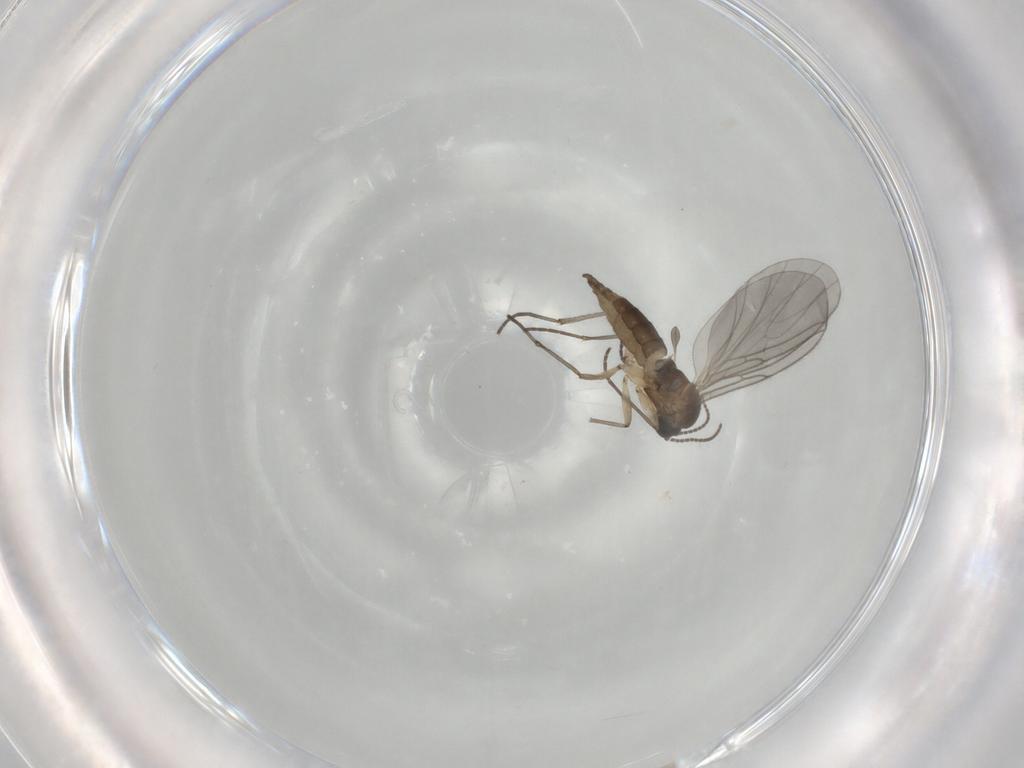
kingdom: Animalia
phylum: Arthropoda
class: Insecta
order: Diptera
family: Sciaridae
